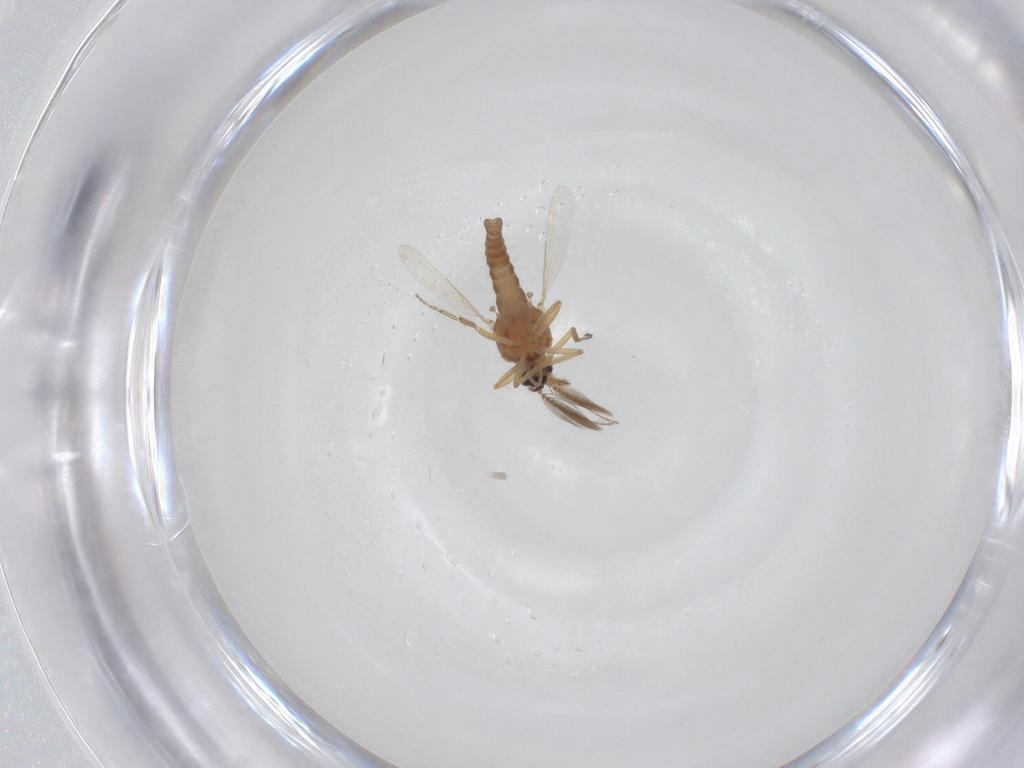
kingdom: Animalia
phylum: Arthropoda
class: Insecta
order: Diptera
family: Ceratopogonidae
